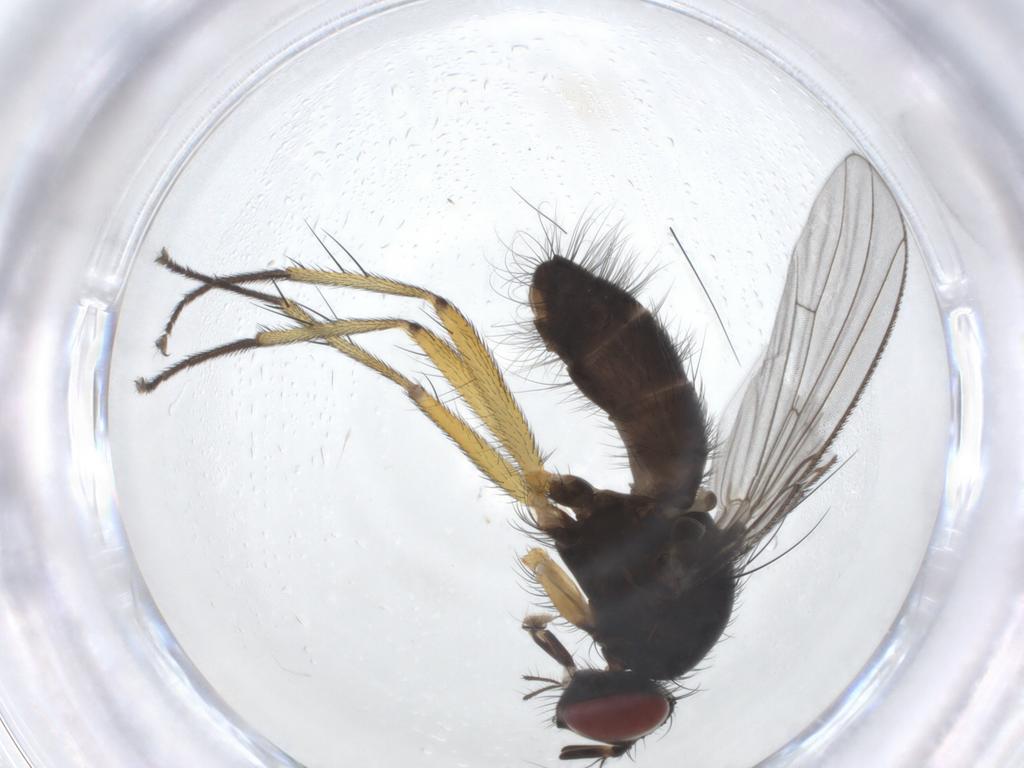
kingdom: Animalia
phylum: Arthropoda
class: Insecta
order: Diptera
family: Muscidae
